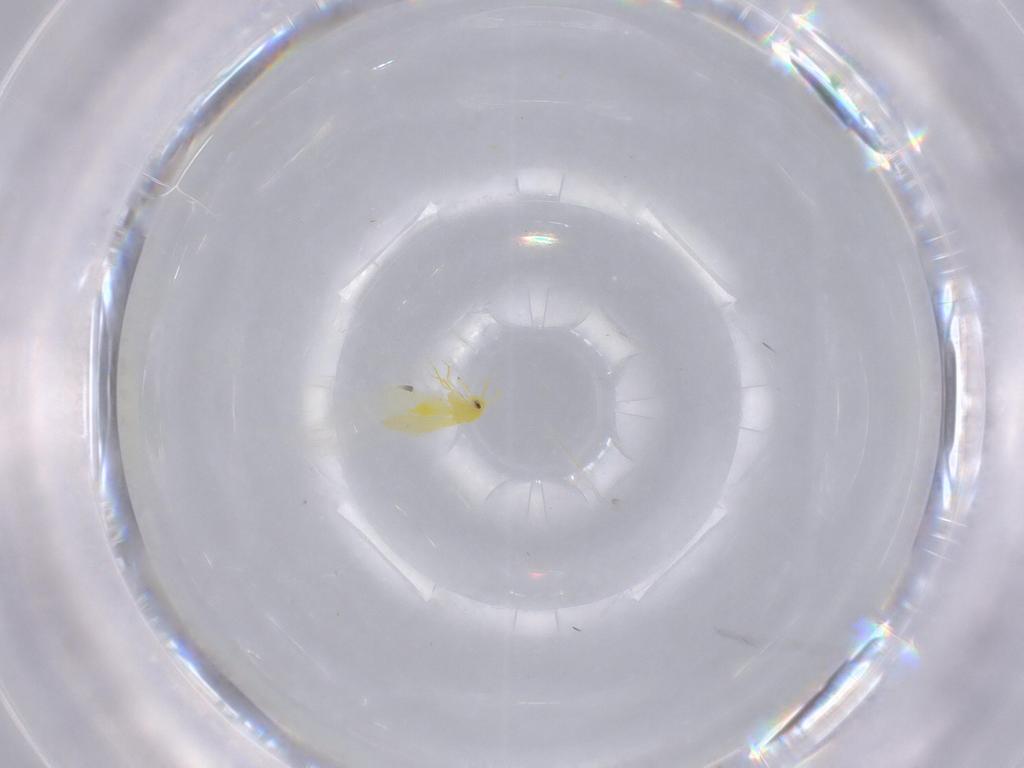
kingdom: Animalia
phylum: Arthropoda
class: Insecta
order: Hemiptera
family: Aleyrodidae
